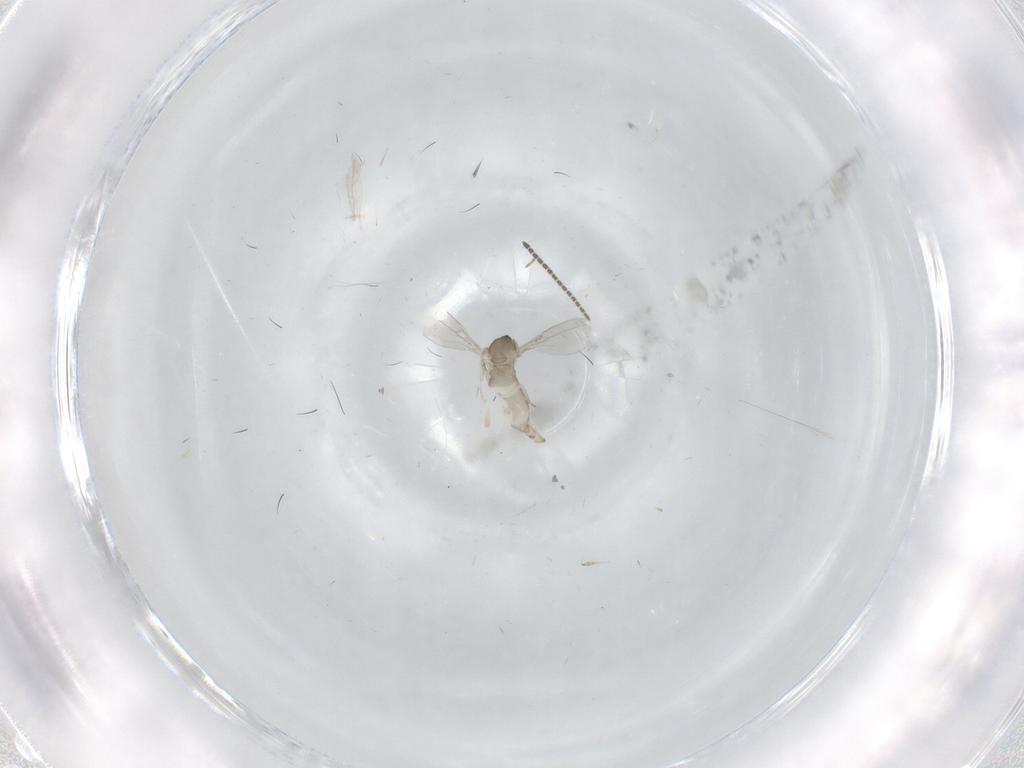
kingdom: Animalia
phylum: Arthropoda
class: Insecta
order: Diptera
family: Cecidomyiidae
